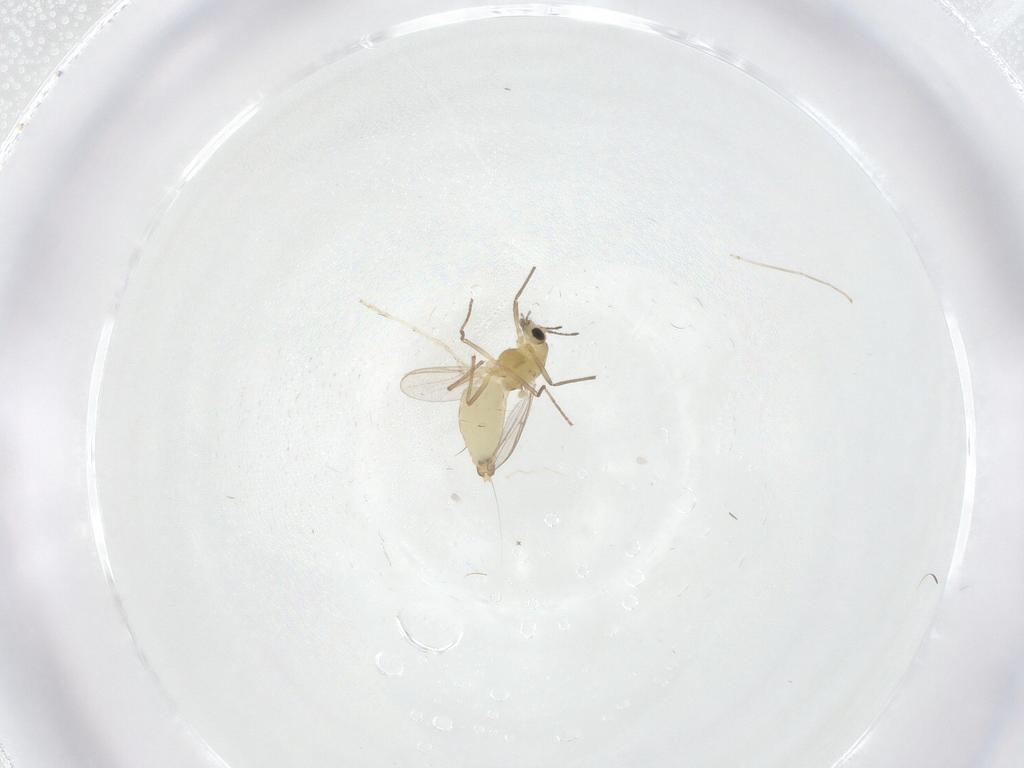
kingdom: Animalia
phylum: Arthropoda
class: Insecta
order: Diptera
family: Chironomidae
